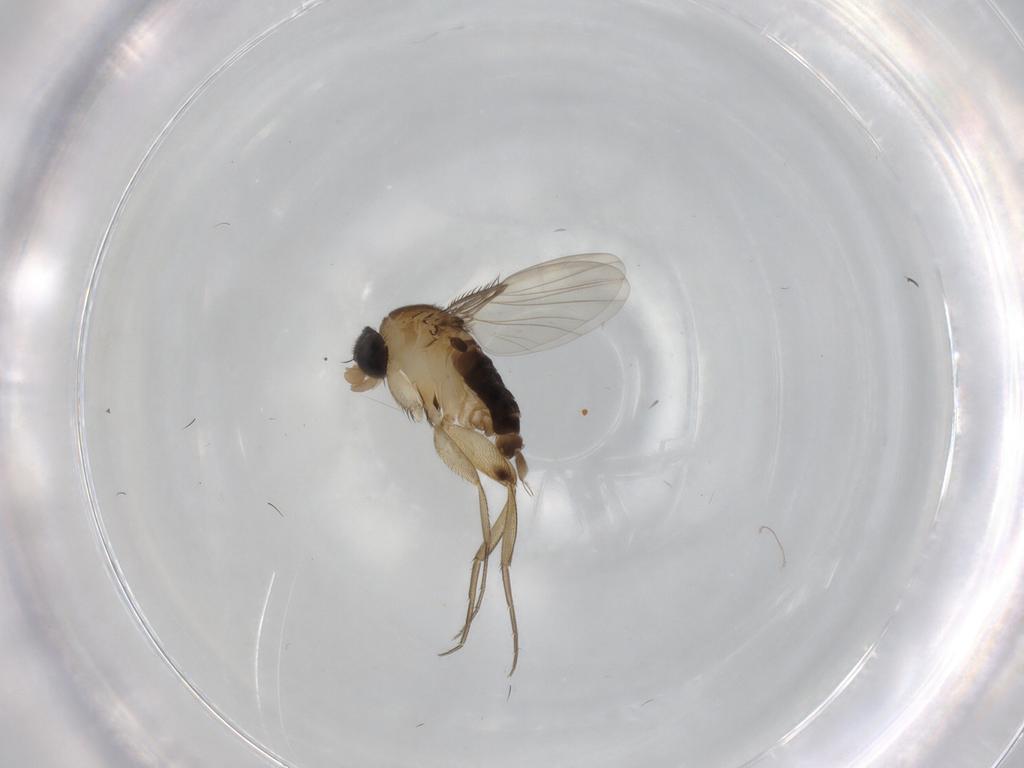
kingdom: Animalia
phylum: Arthropoda
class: Insecta
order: Diptera
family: Phoridae
